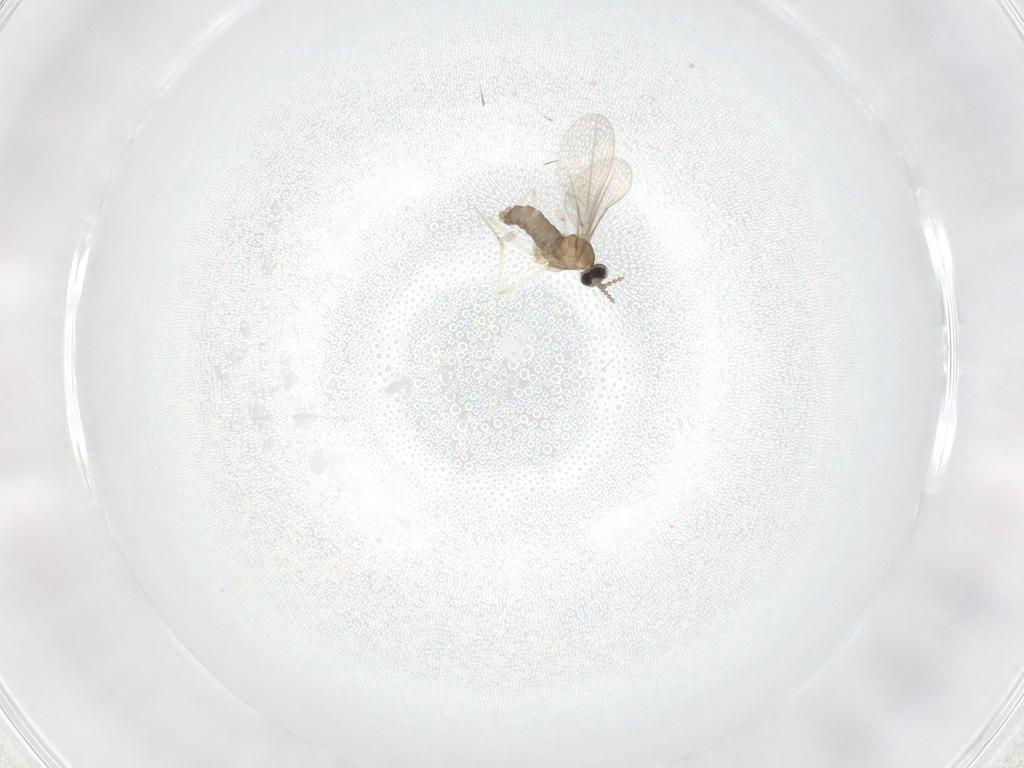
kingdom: Animalia
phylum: Arthropoda
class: Insecta
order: Diptera
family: Cecidomyiidae
